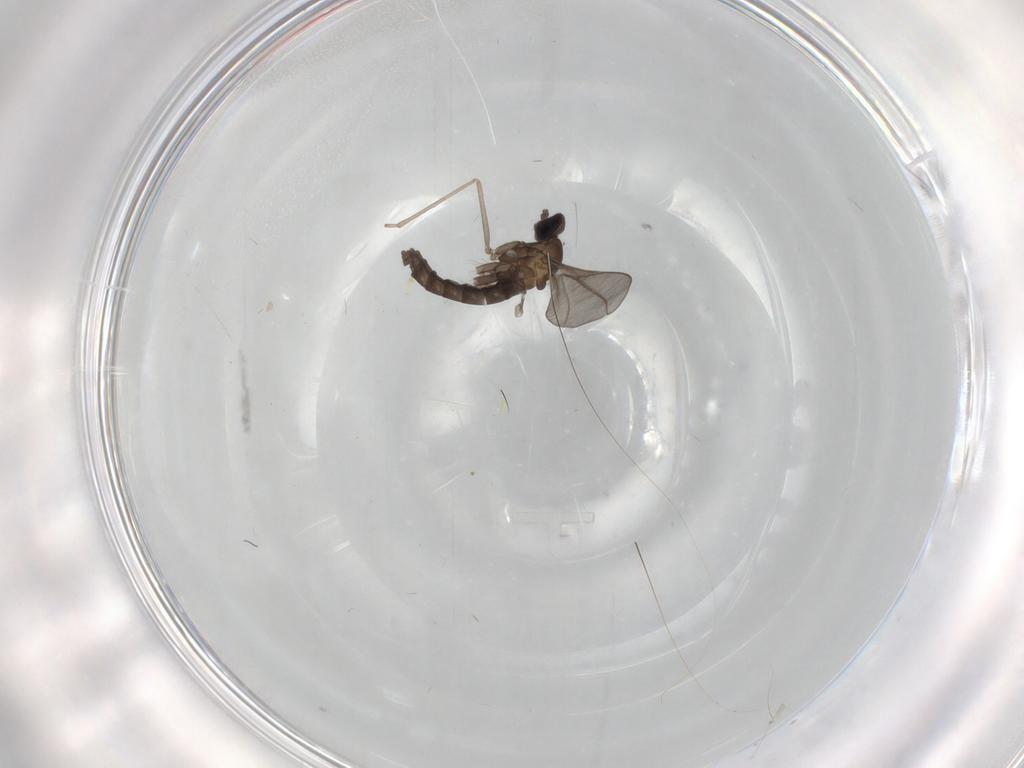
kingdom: Animalia
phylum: Arthropoda
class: Insecta
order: Diptera
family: Cecidomyiidae
